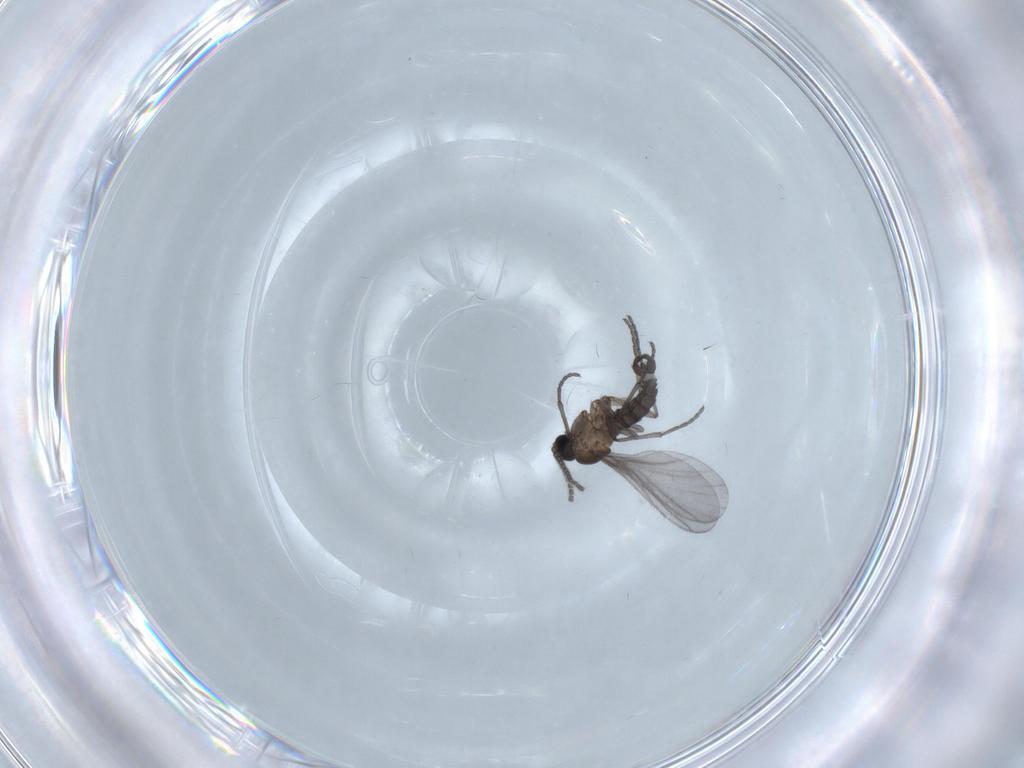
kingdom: Animalia
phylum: Arthropoda
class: Insecta
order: Diptera
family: Sciaridae
